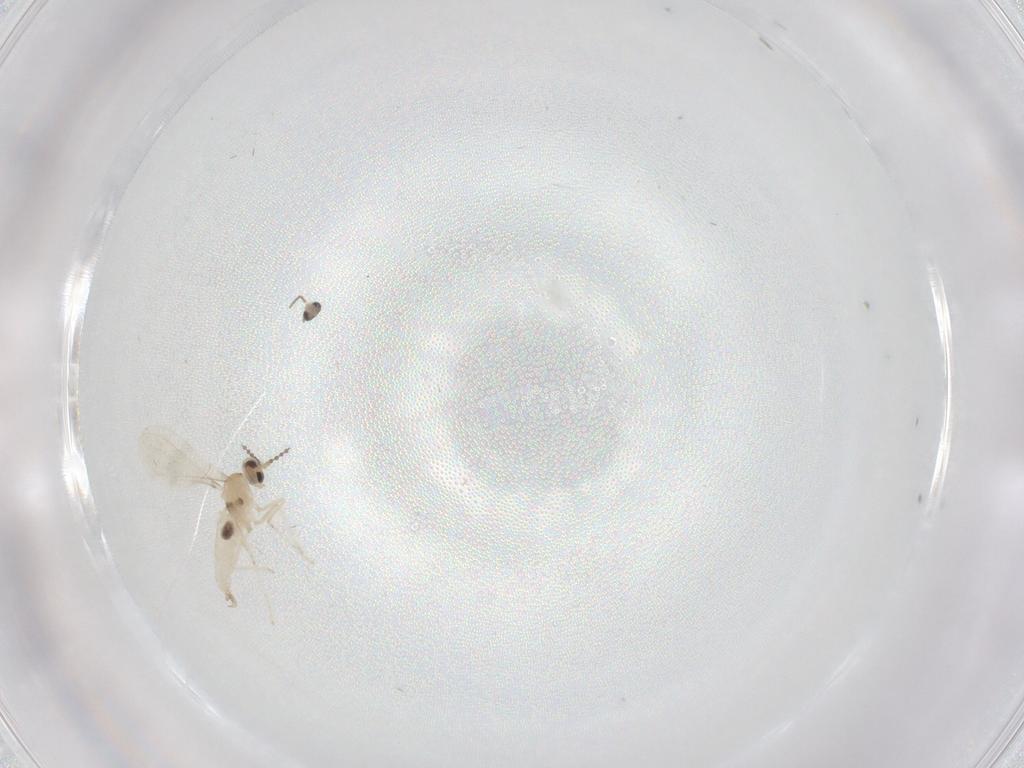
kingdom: Animalia
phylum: Arthropoda
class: Insecta
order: Diptera
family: Cecidomyiidae
